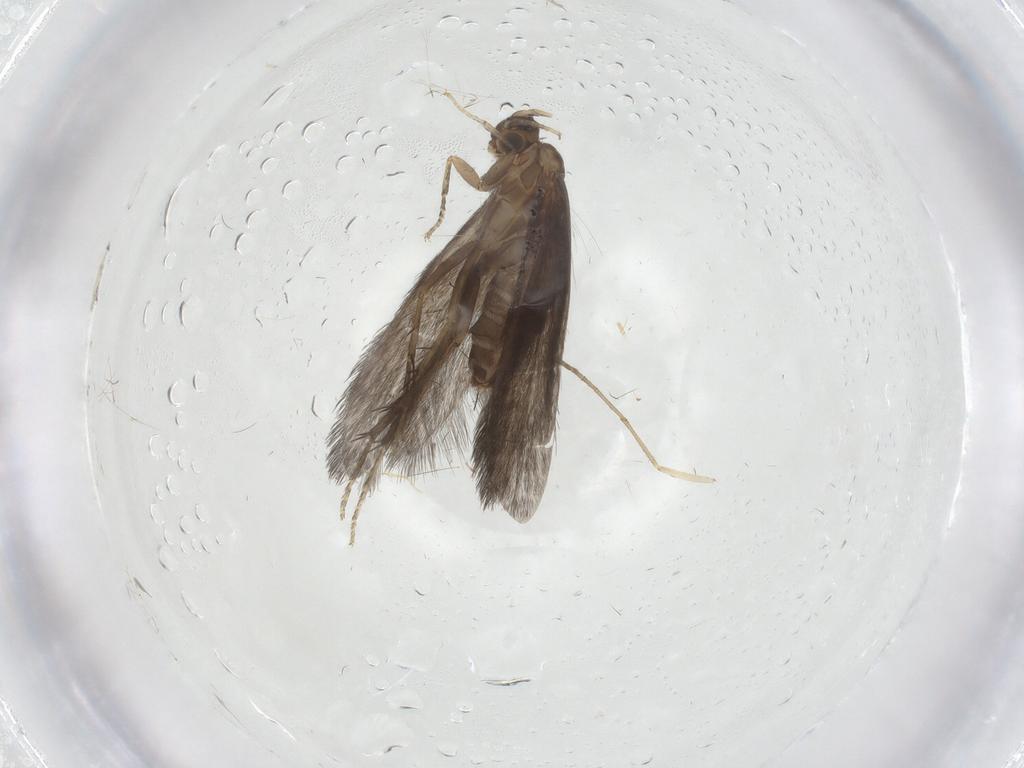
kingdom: Animalia
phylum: Arthropoda
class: Insecta
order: Trichoptera
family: Glossosomatidae
